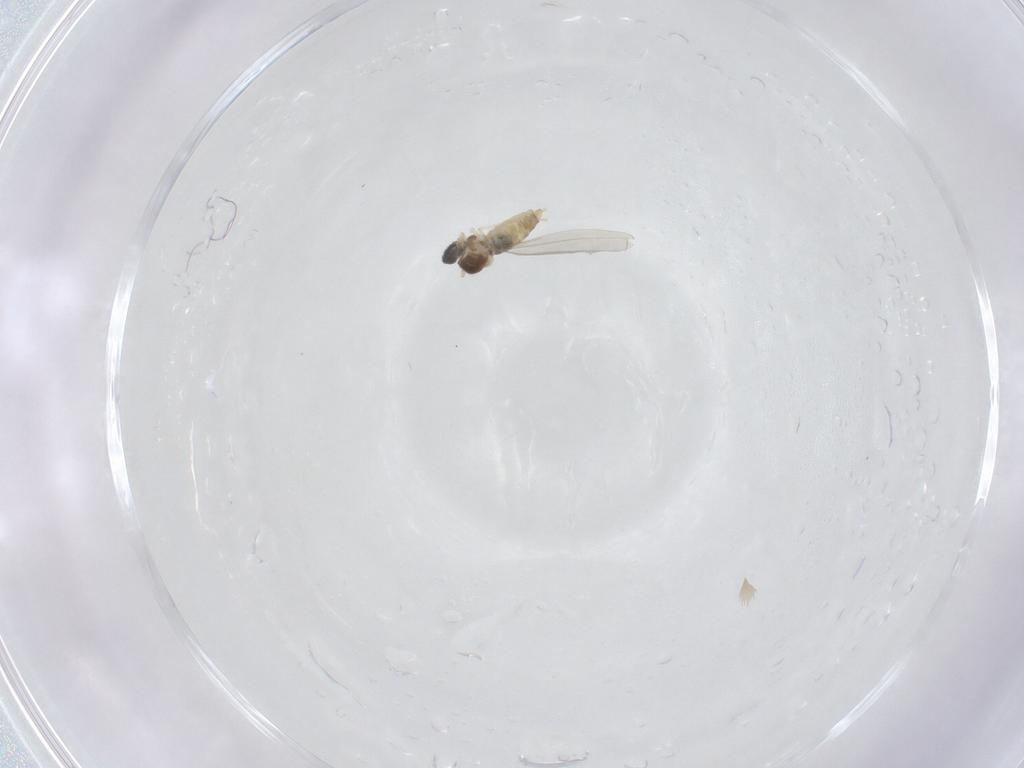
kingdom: Animalia
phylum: Arthropoda
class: Insecta
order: Diptera
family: Cecidomyiidae
